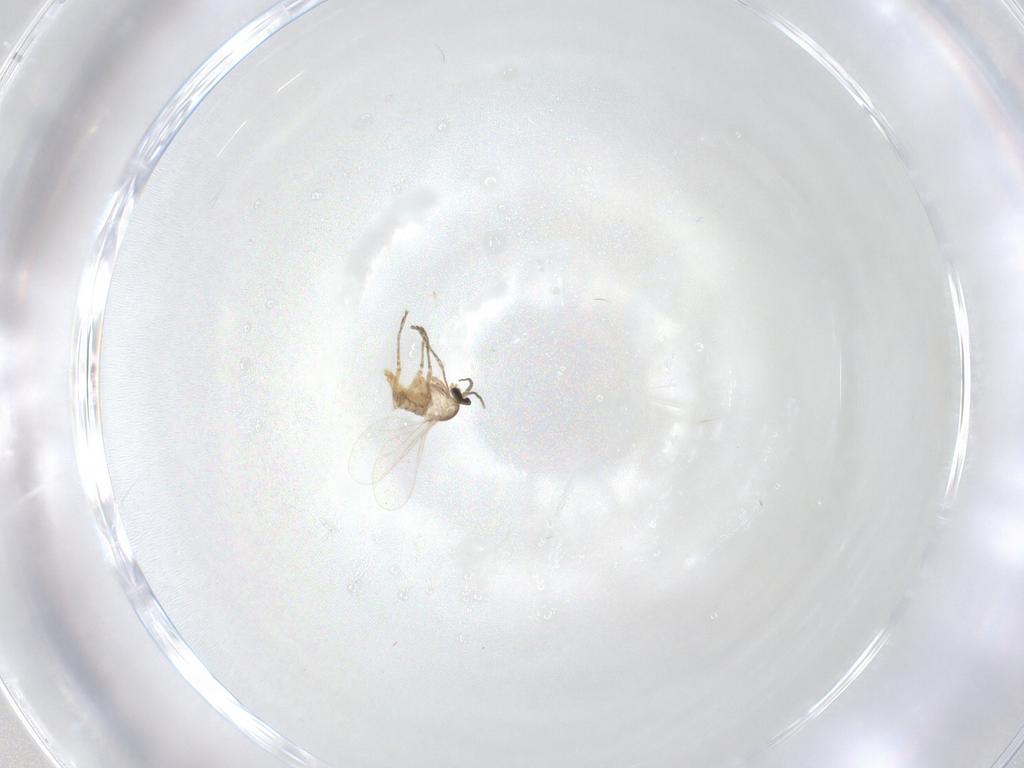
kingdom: Animalia
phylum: Arthropoda
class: Insecta
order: Diptera
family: Cecidomyiidae
